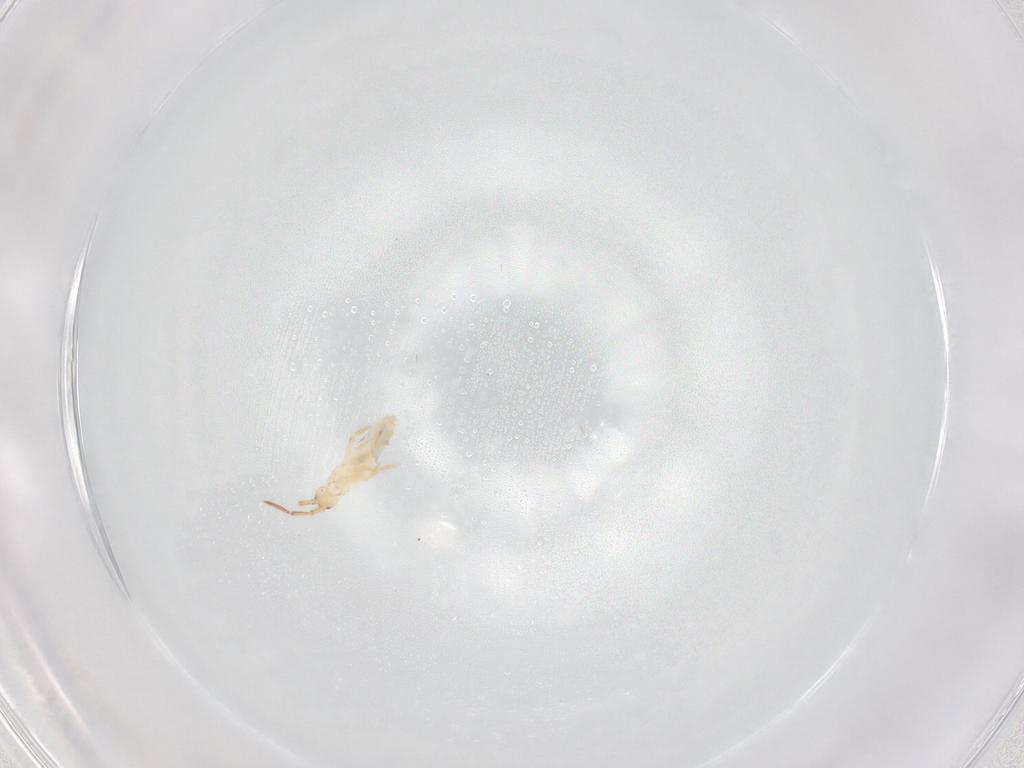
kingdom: Animalia
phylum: Arthropoda
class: Collembola
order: Entomobryomorpha
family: Entomobryidae
